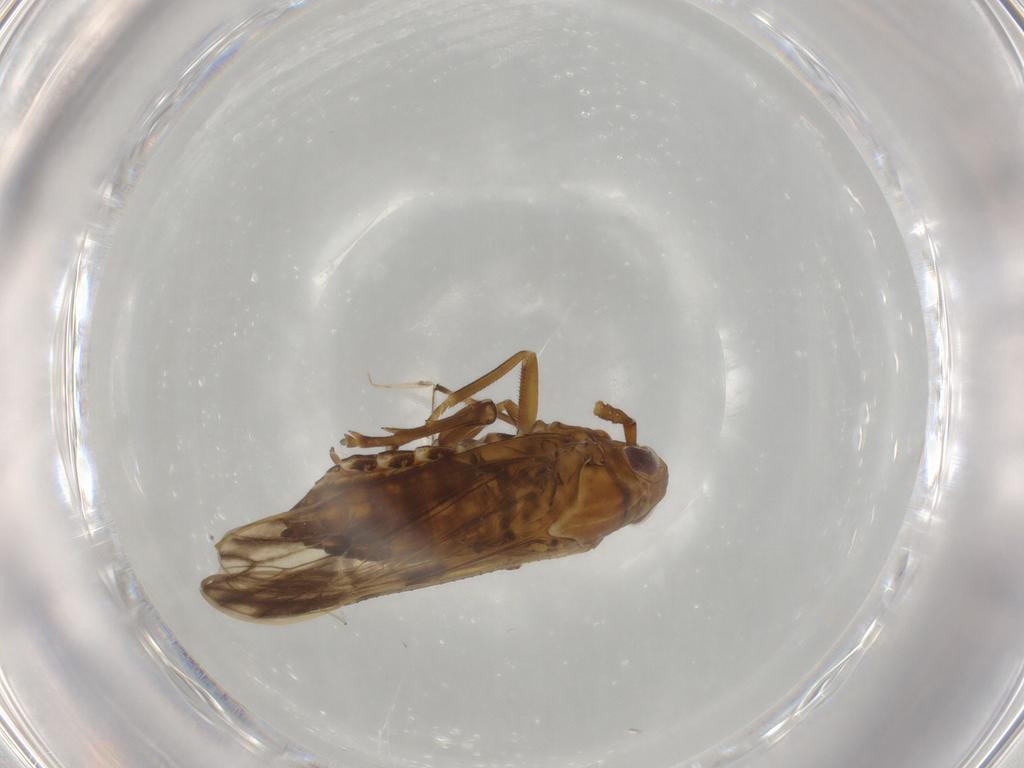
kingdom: Animalia
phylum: Arthropoda
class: Insecta
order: Hemiptera
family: Delphacidae
